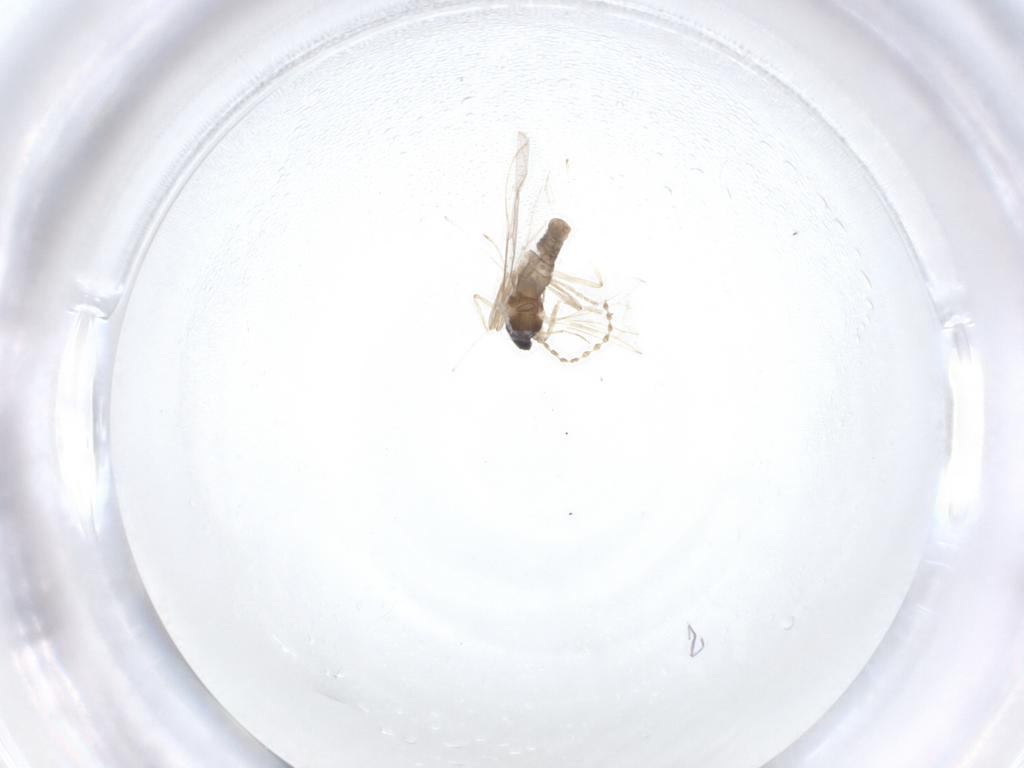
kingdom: Animalia
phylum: Arthropoda
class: Insecta
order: Diptera
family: Chironomidae
